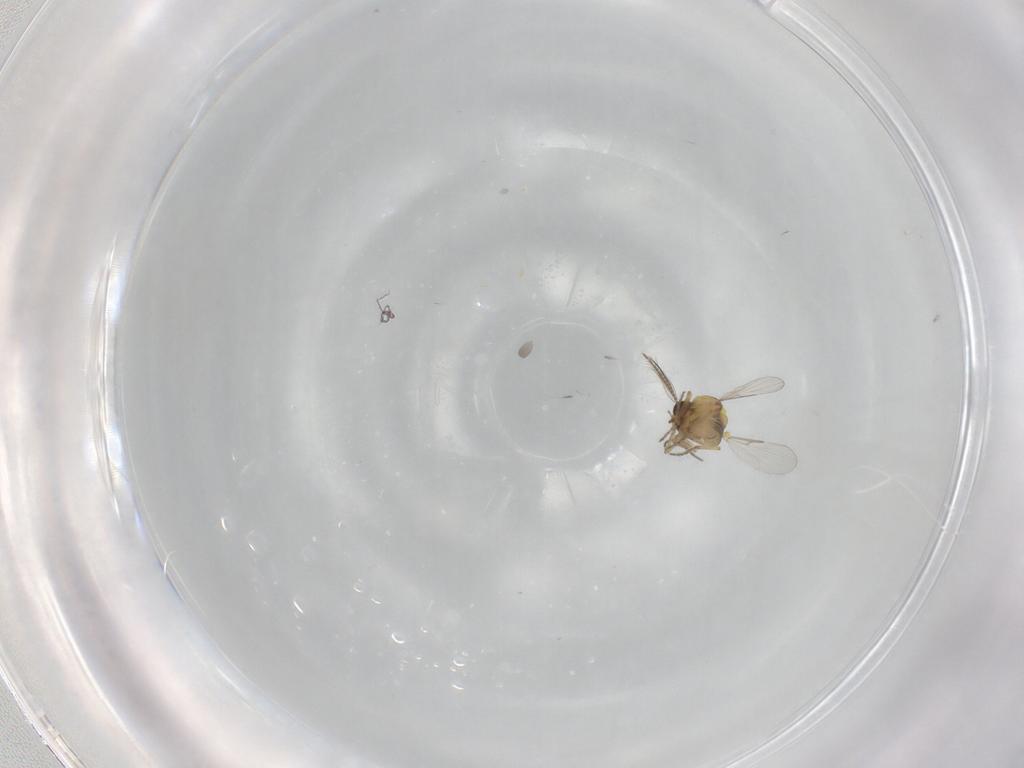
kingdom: Animalia
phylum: Arthropoda
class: Insecta
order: Diptera
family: Ceratopogonidae
